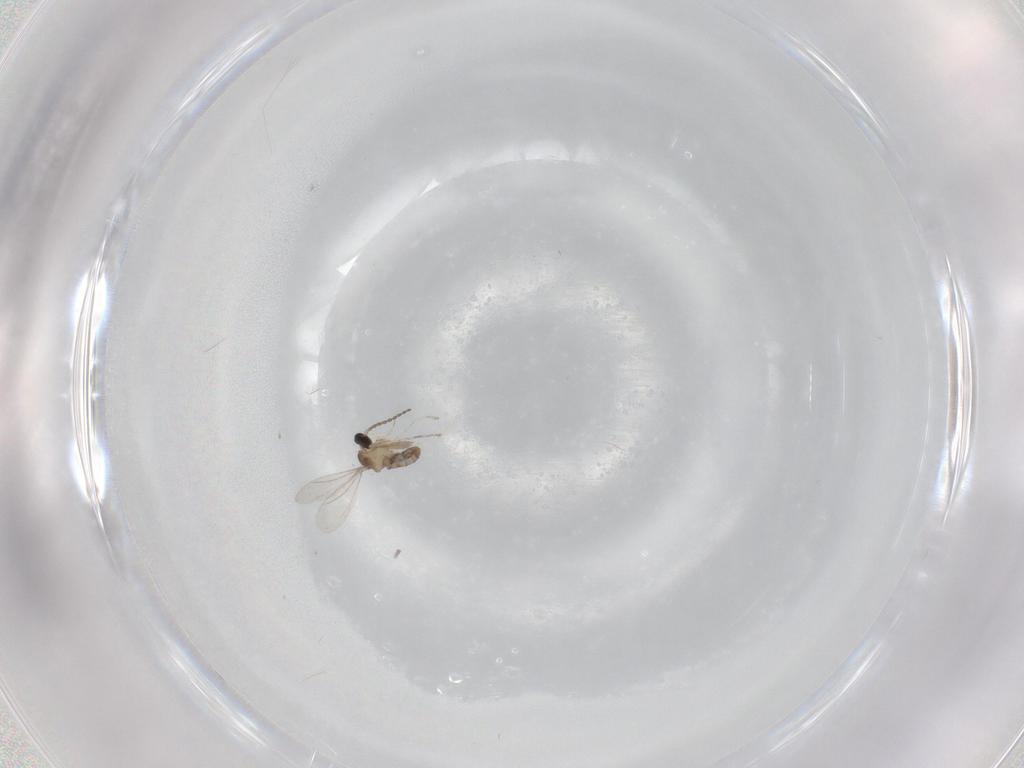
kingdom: Animalia
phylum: Arthropoda
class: Insecta
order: Diptera
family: Cecidomyiidae
